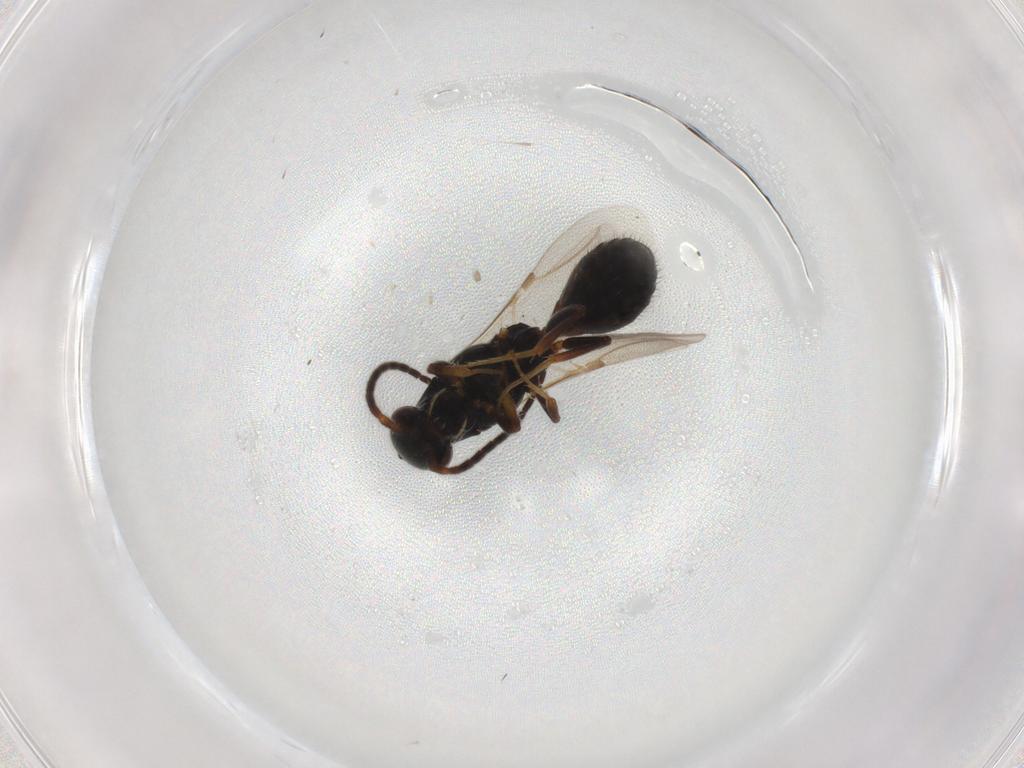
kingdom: Animalia
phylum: Arthropoda
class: Insecta
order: Hymenoptera
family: Bethylidae
